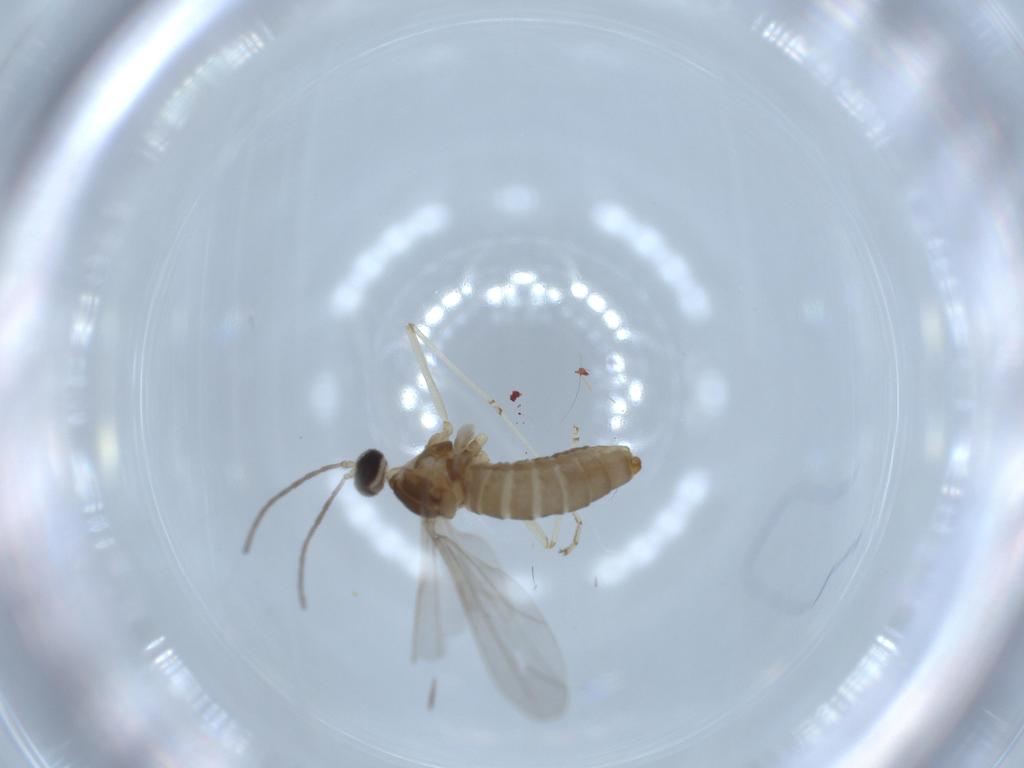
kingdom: Animalia
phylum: Arthropoda
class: Insecta
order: Diptera
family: Cecidomyiidae
